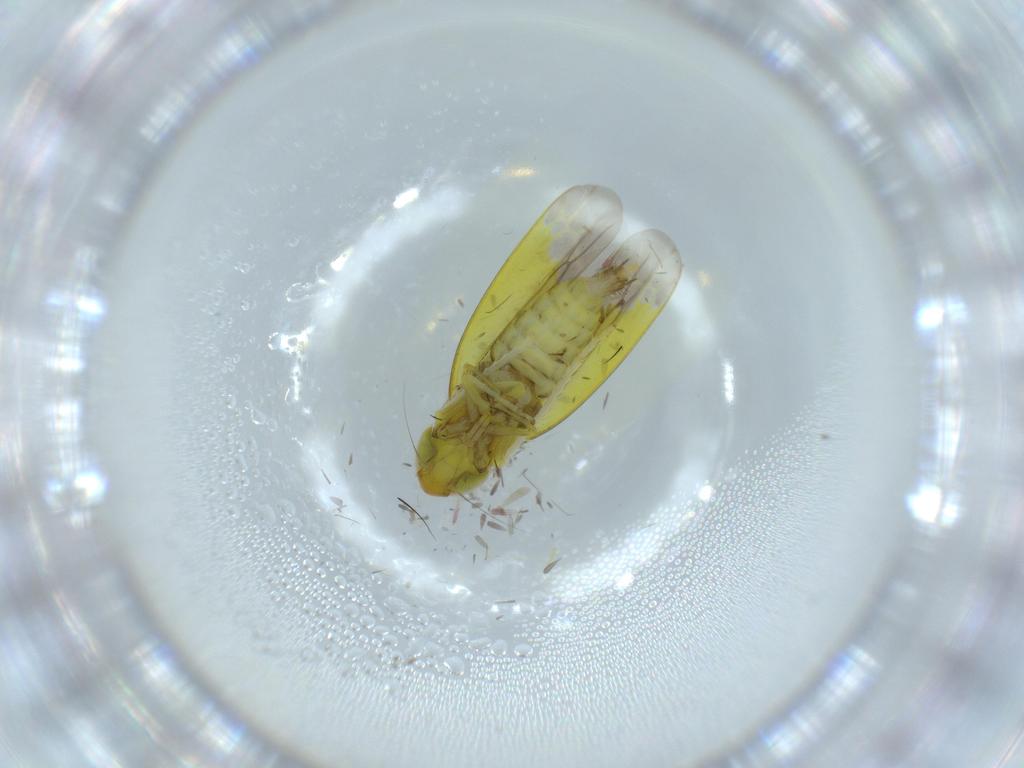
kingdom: Animalia
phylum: Arthropoda
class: Insecta
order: Hemiptera
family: Cicadellidae
